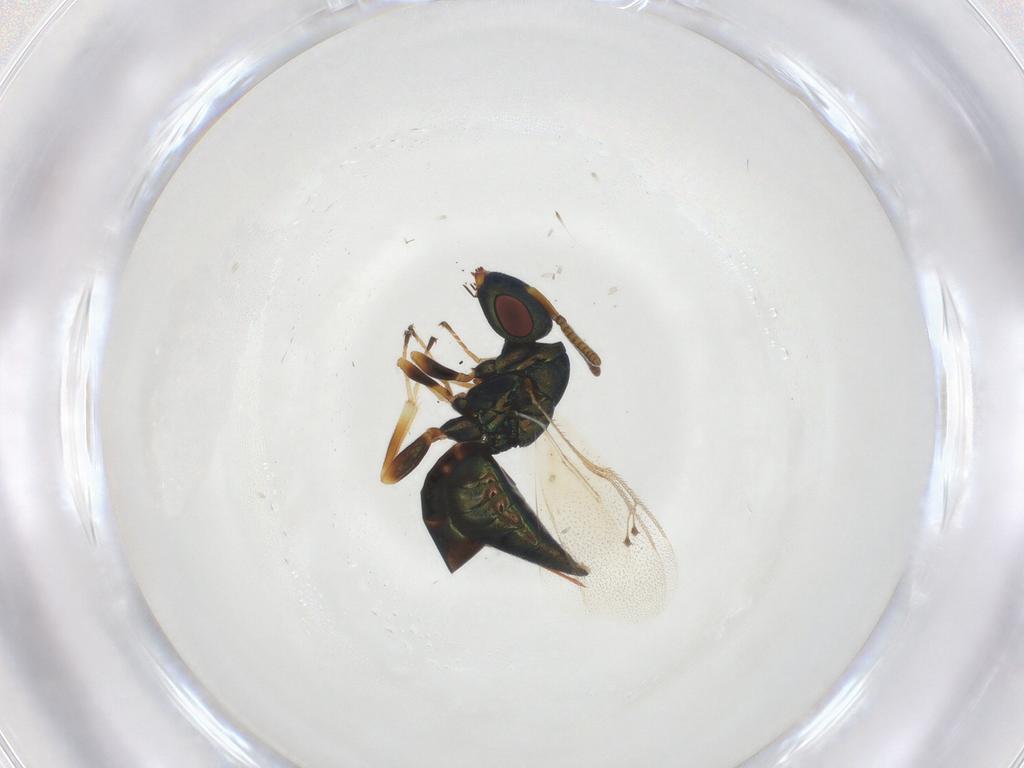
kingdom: Animalia
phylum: Arthropoda
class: Insecta
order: Hymenoptera
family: Pteromalidae
